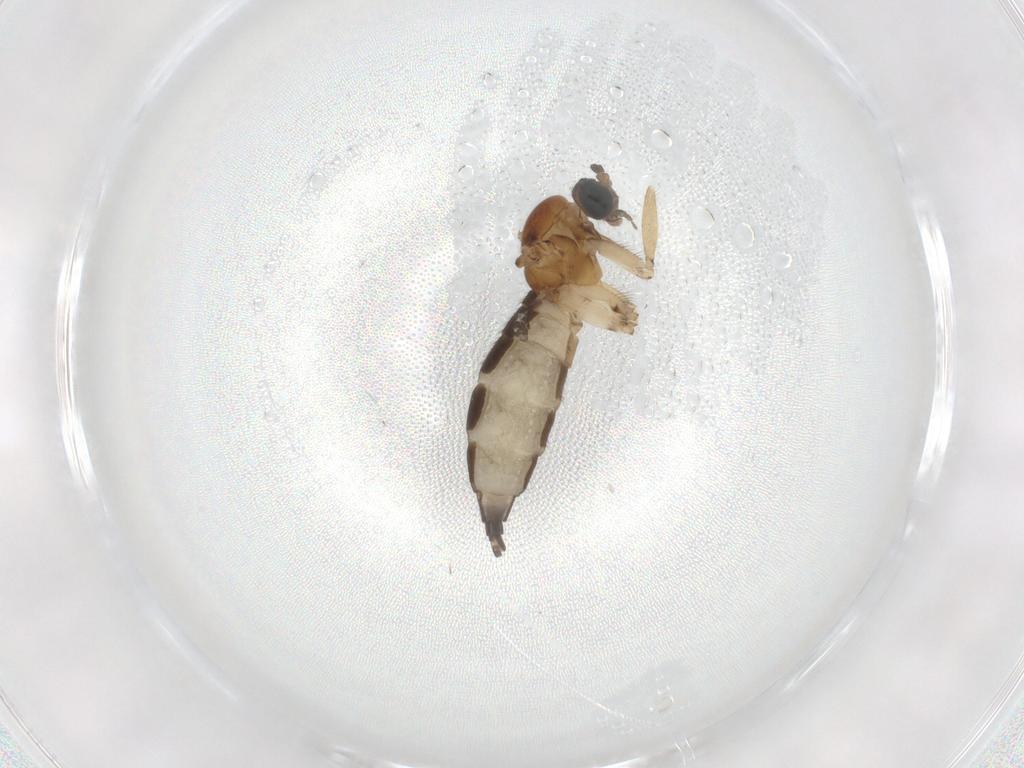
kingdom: Animalia
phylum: Arthropoda
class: Insecta
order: Diptera
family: Sciaridae
